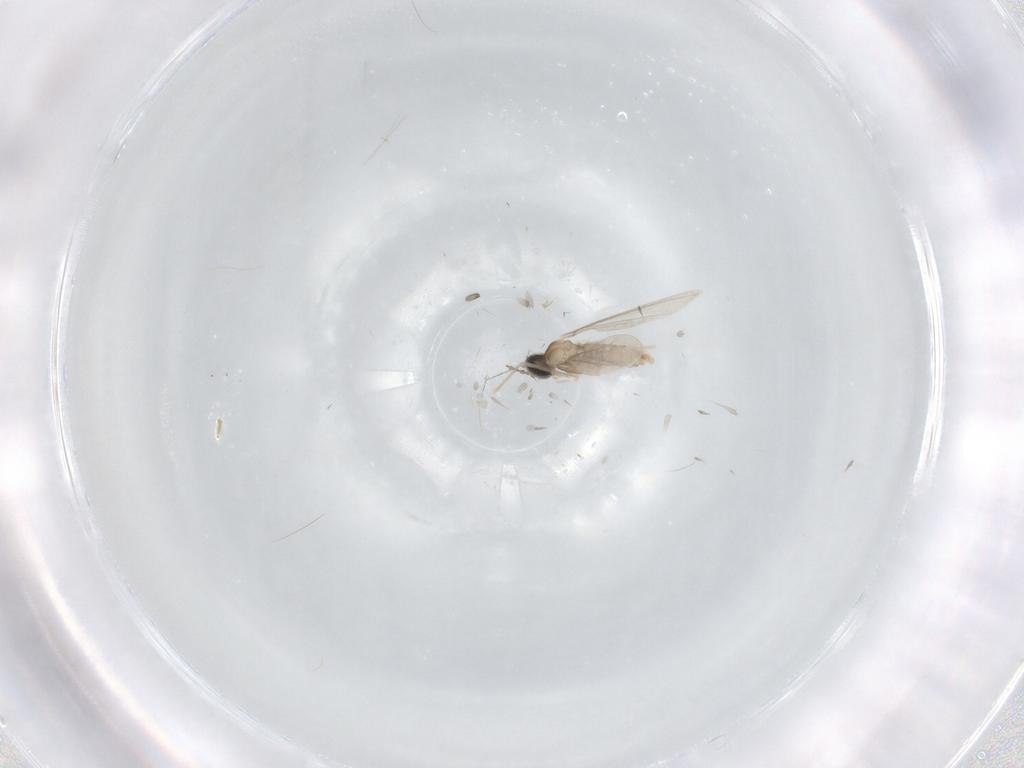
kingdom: Animalia
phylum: Arthropoda
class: Insecta
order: Diptera
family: Cecidomyiidae
